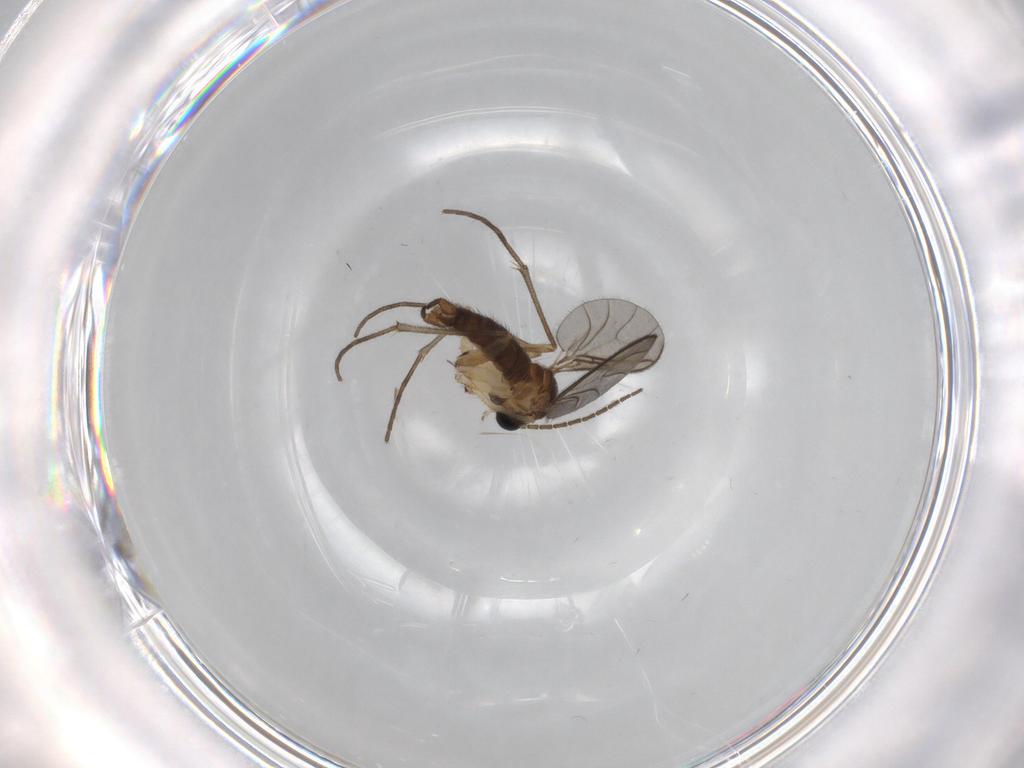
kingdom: Animalia
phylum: Arthropoda
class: Insecta
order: Diptera
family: Sciaridae
